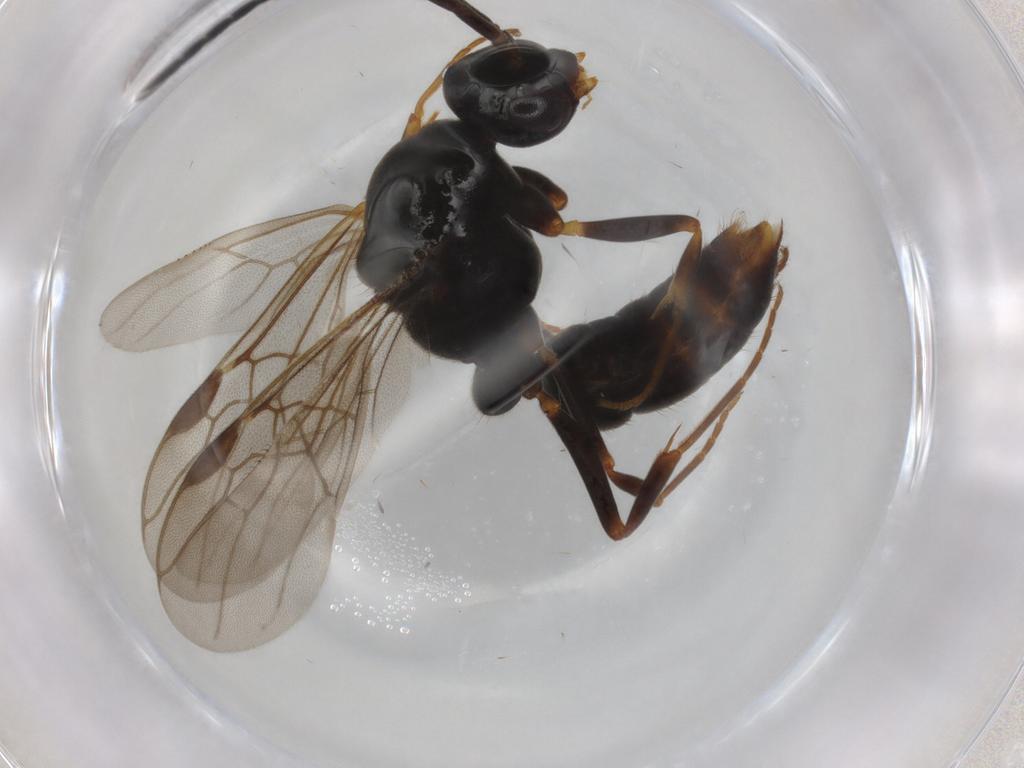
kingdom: Animalia
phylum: Arthropoda
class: Insecta
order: Hymenoptera
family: Formicidae
